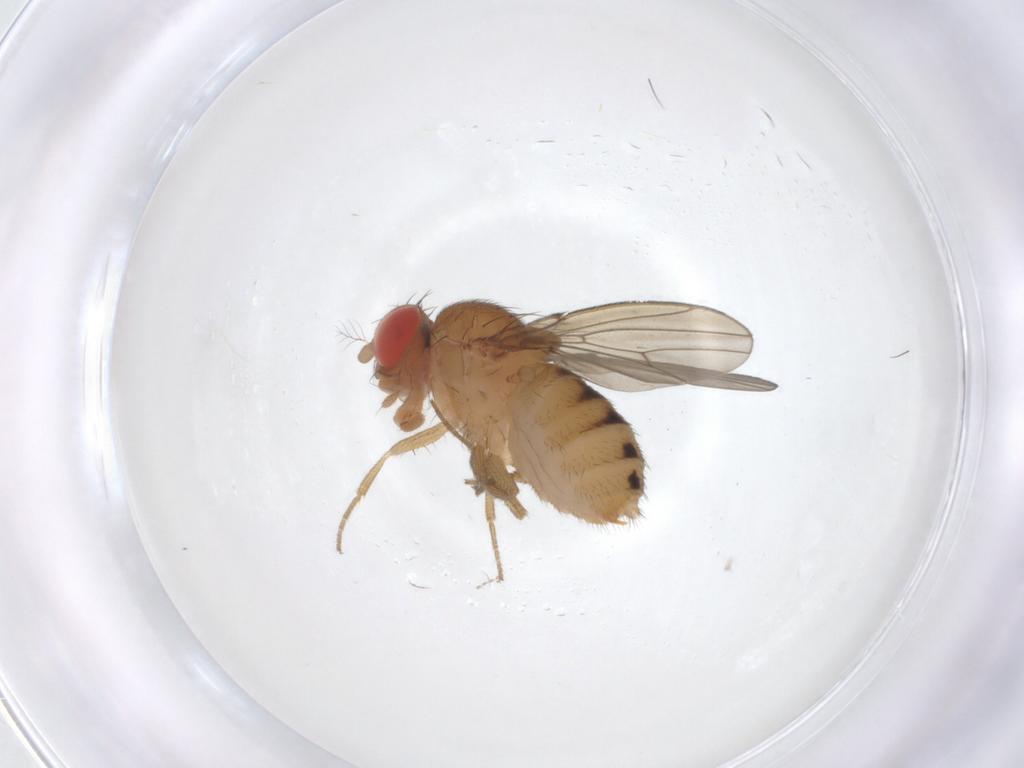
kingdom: Animalia
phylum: Arthropoda
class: Insecta
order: Diptera
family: Drosophilidae
